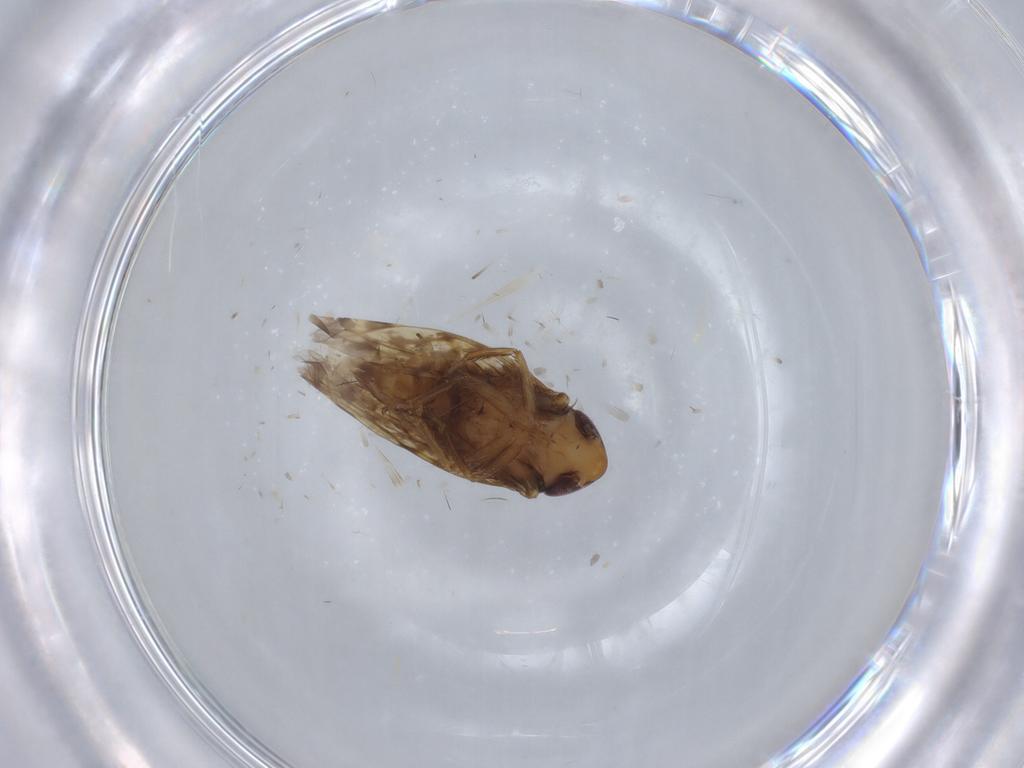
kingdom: Animalia
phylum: Arthropoda
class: Insecta
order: Hemiptera
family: Cicadellidae
